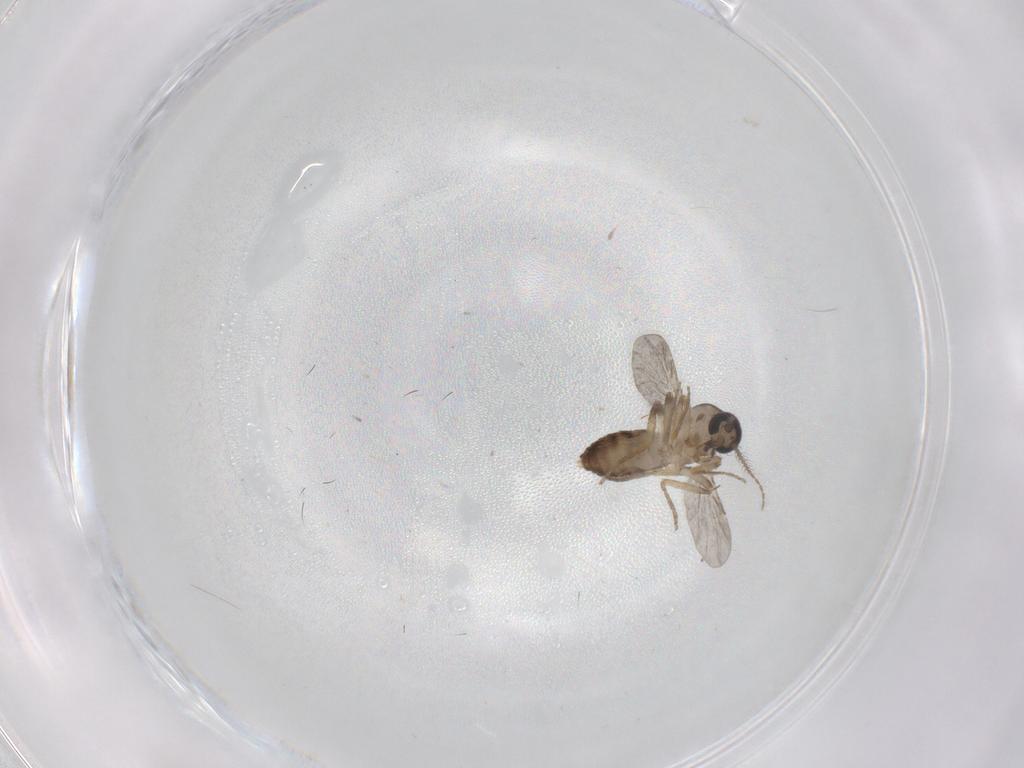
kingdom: Animalia
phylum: Arthropoda
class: Insecta
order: Diptera
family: Ceratopogonidae
